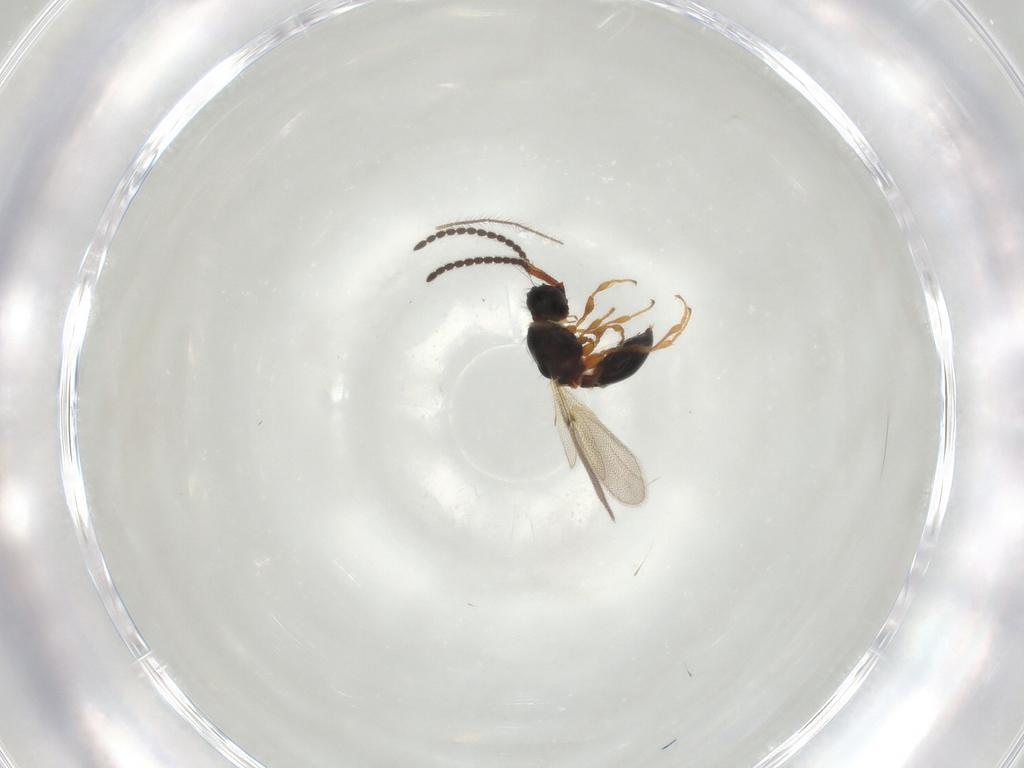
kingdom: Animalia
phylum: Arthropoda
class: Insecta
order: Hymenoptera
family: Diapriidae
